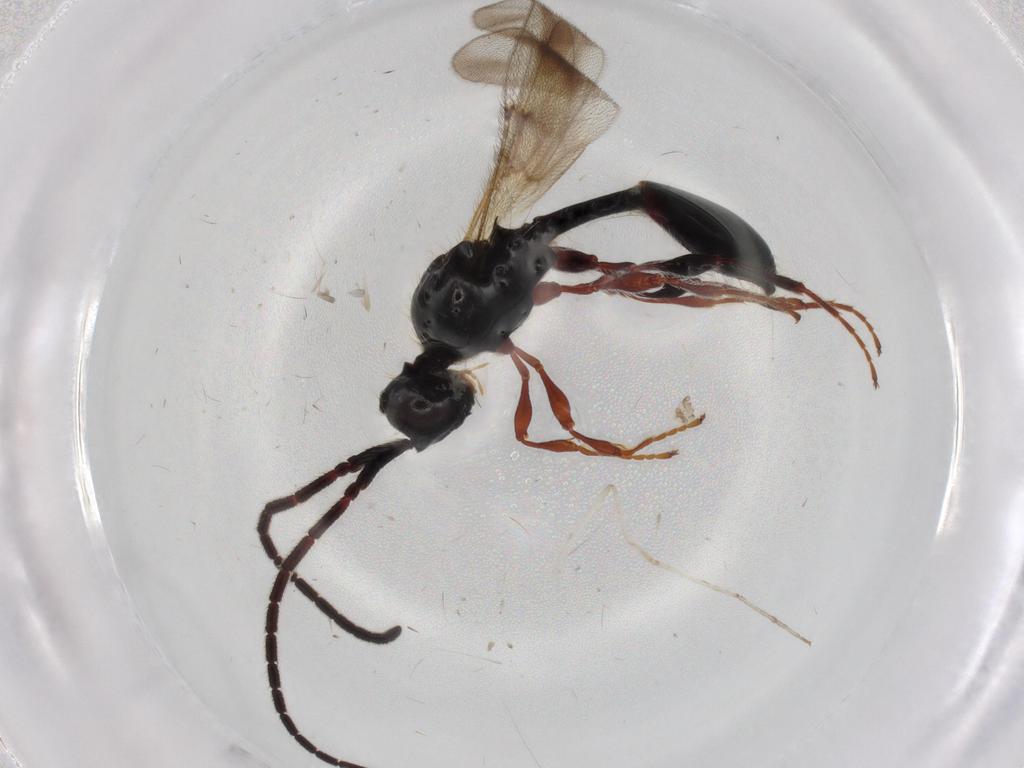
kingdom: Animalia
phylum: Arthropoda
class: Insecta
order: Hymenoptera
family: Diapriidae
